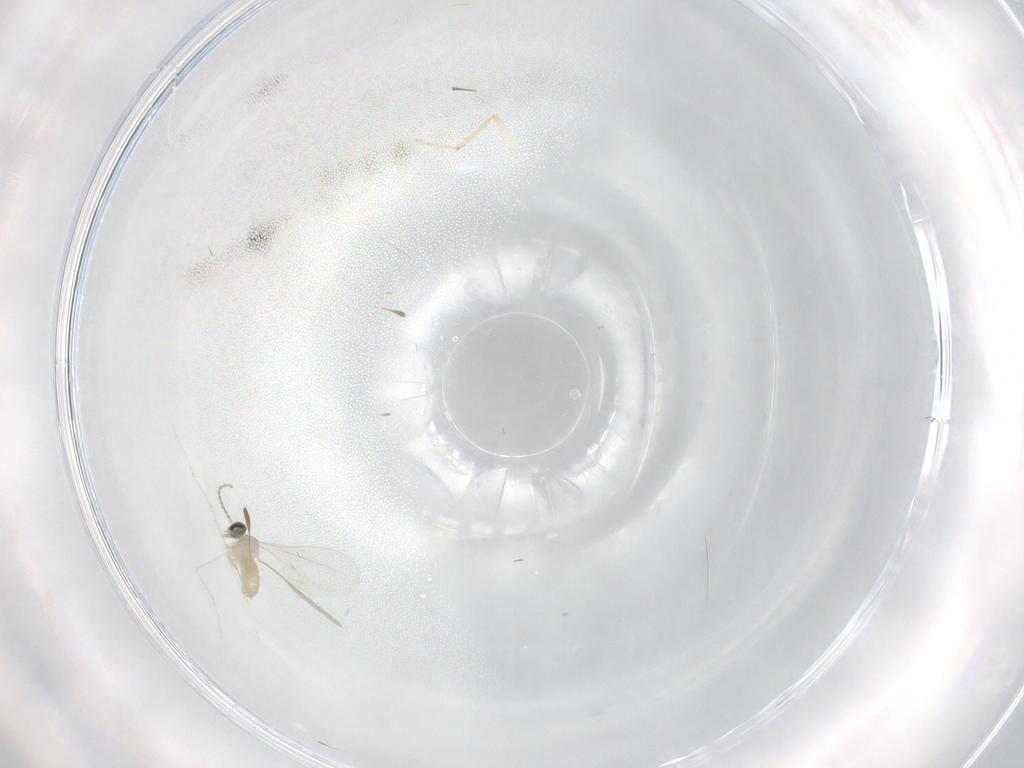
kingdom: Animalia
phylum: Arthropoda
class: Insecta
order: Diptera
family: Cecidomyiidae
